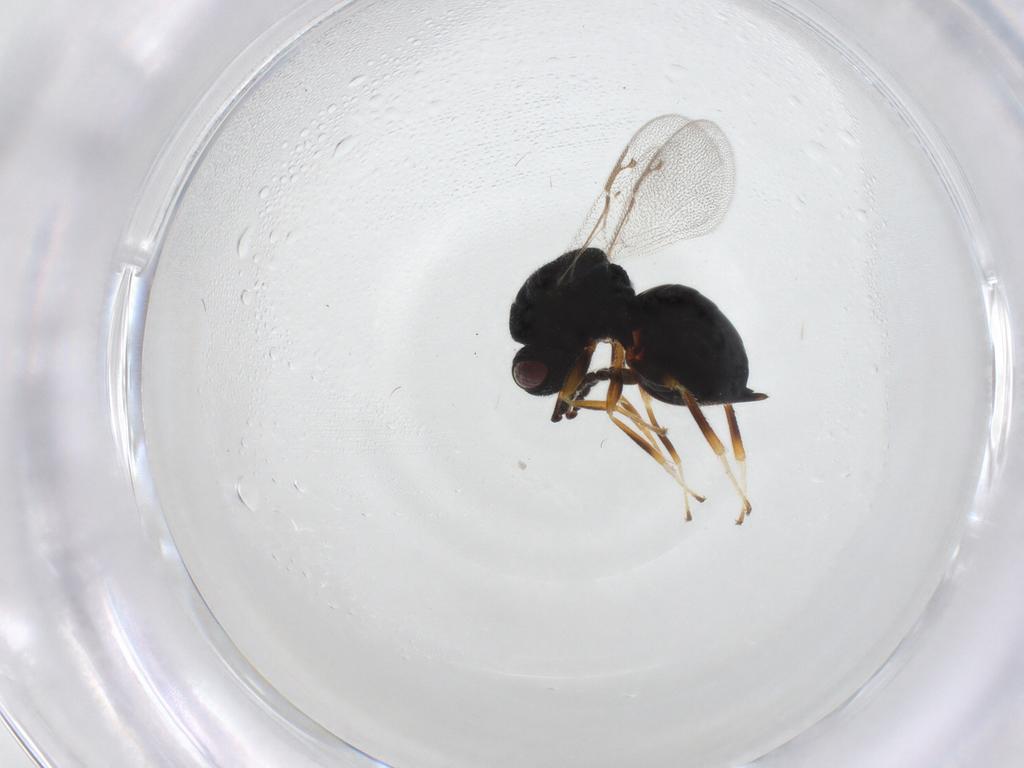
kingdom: Animalia
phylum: Arthropoda
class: Insecta
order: Hymenoptera
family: Eurytomidae
